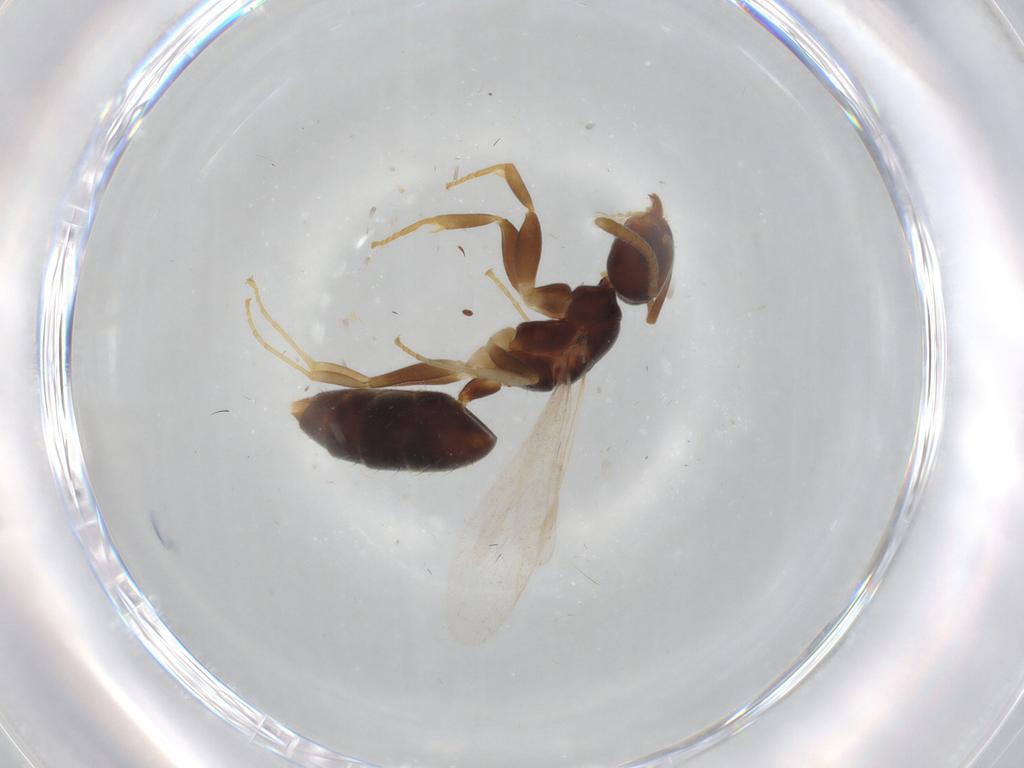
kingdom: Animalia
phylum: Arthropoda
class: Insecta
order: Hymenoptera
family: Formicidae
